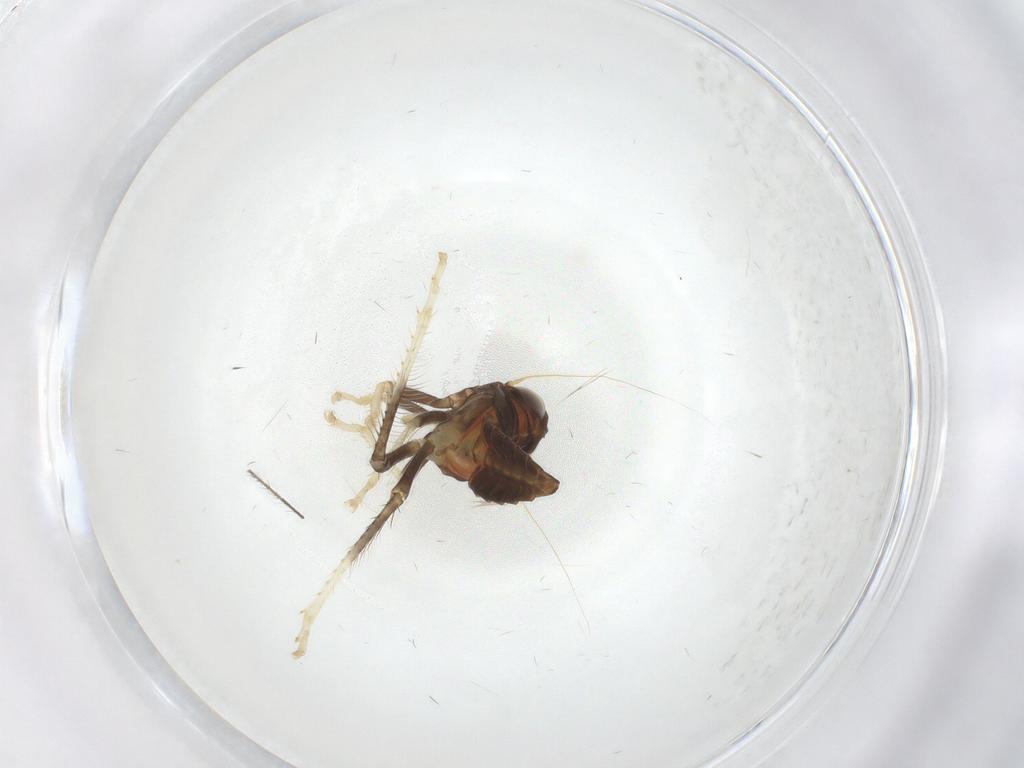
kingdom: Animalia
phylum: Arthropoda
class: Insecta
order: Hemiptera
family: Cicadellidae
